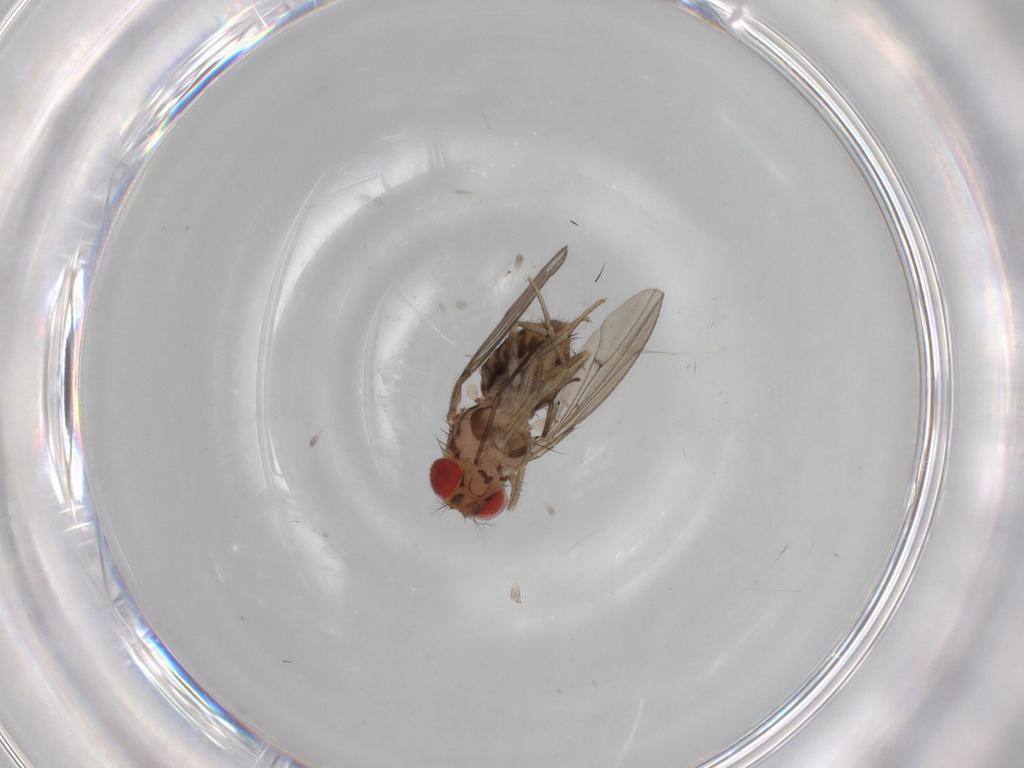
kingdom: Animalia
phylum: Arthropoda
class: Insecta
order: Diptera
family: Drosophilidae
